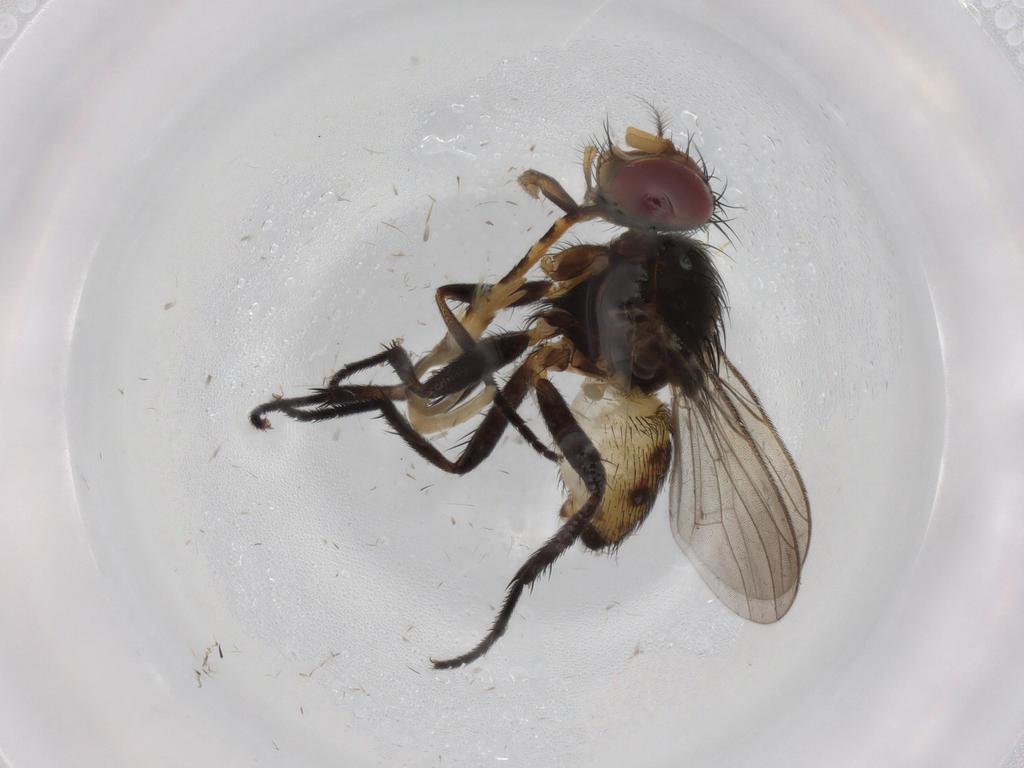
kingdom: Animalia
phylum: Arthropoda
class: Insecta
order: Diptera
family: Anthomyiidae
